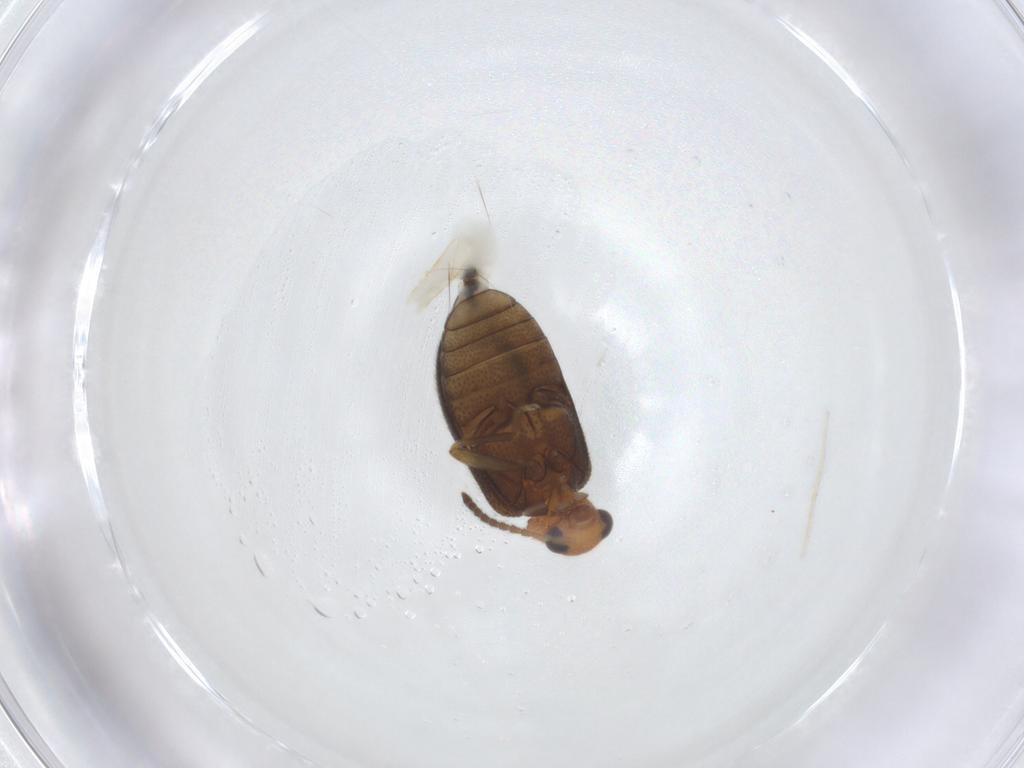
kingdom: Animalia
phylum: Arthropoda
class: Insecta
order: Coleoptera
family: Aderidae
